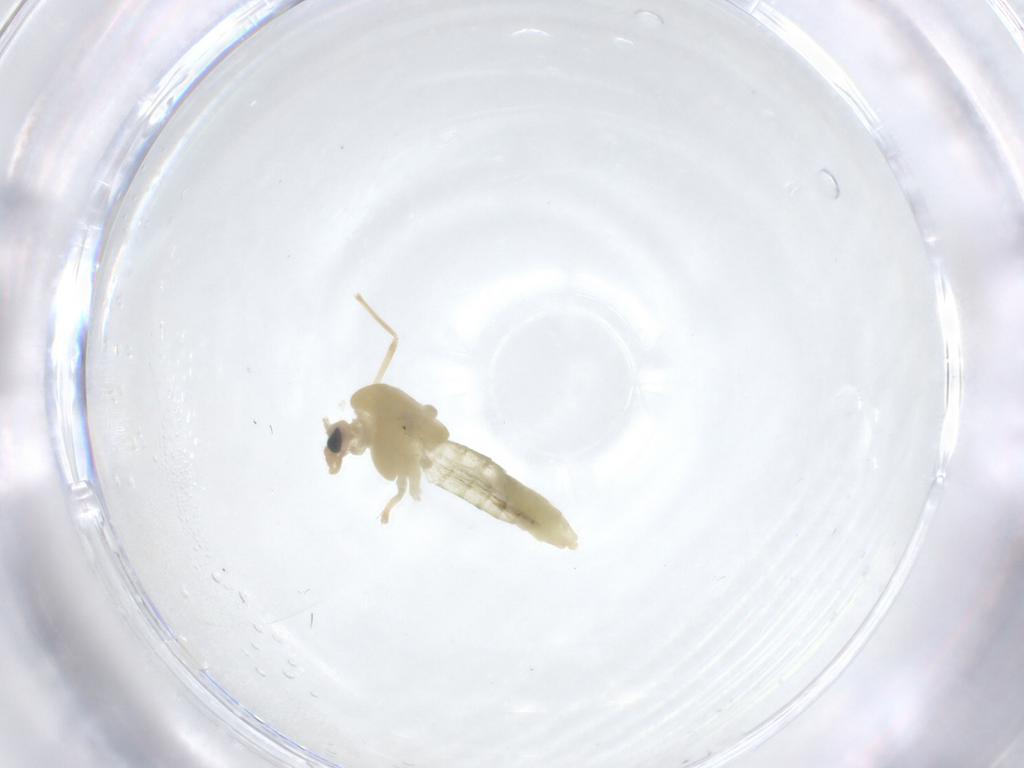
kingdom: Animalia
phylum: Arthropoda
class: Insecta
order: Diptera
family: Chironomidae
